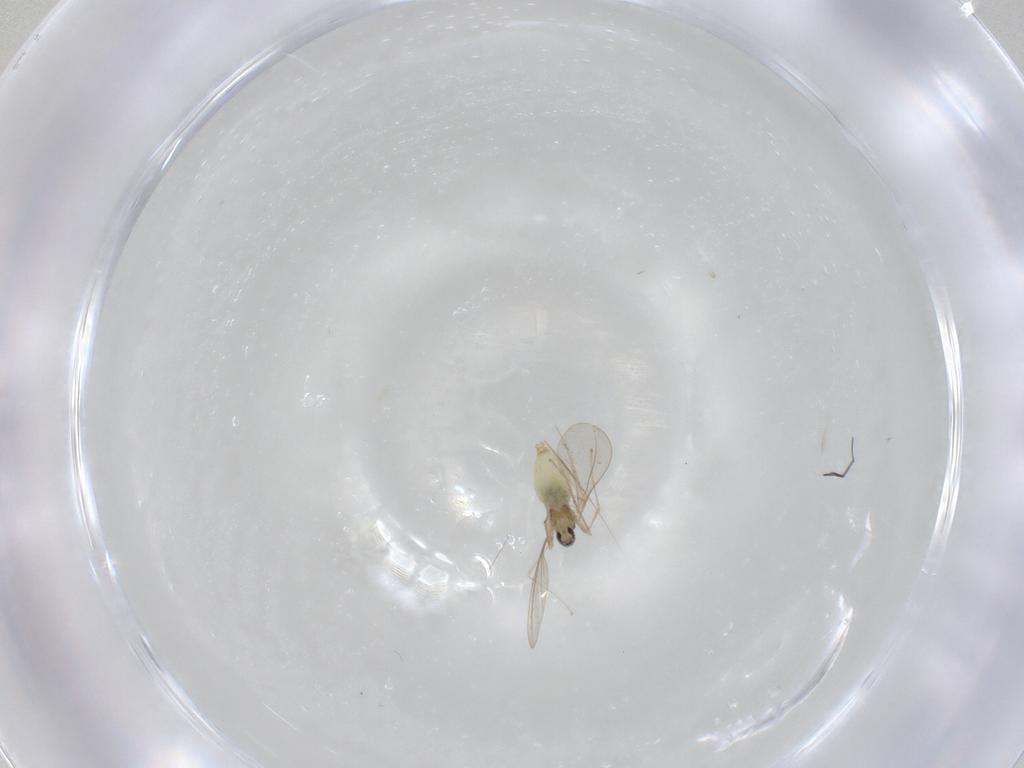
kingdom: Animalia
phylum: Arthropoda
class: Insecta
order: Diptera
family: Cecidomyiidae
